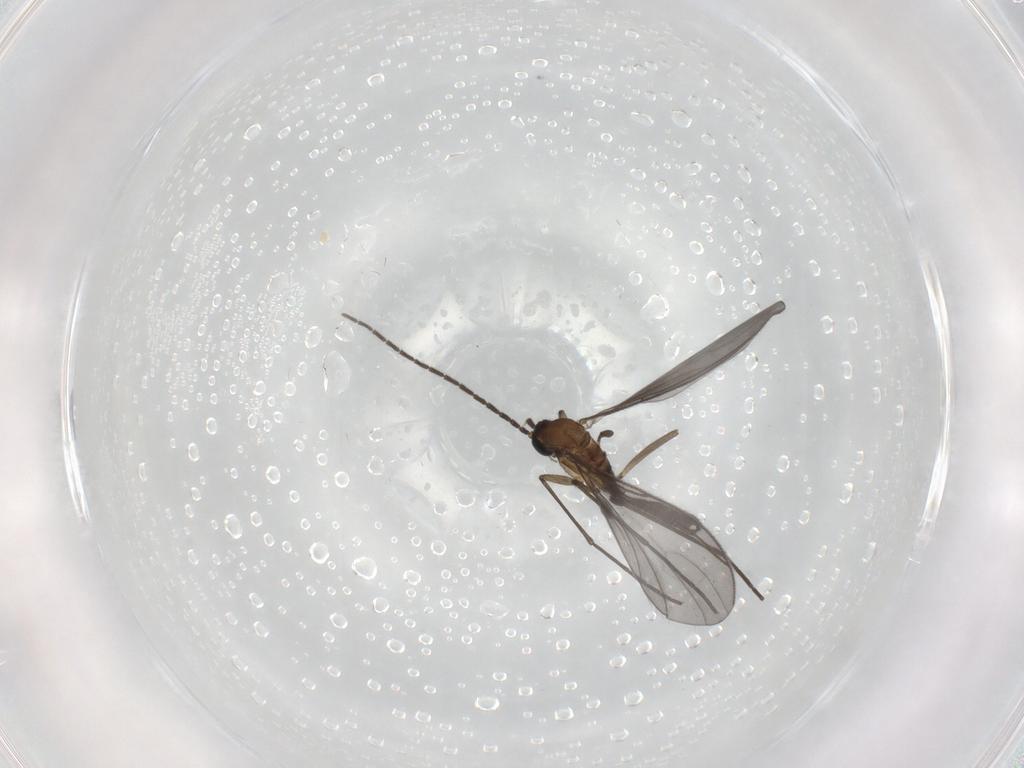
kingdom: Animalia
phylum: Arthropoda
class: Insecta
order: Diptera
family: Sciaridae
